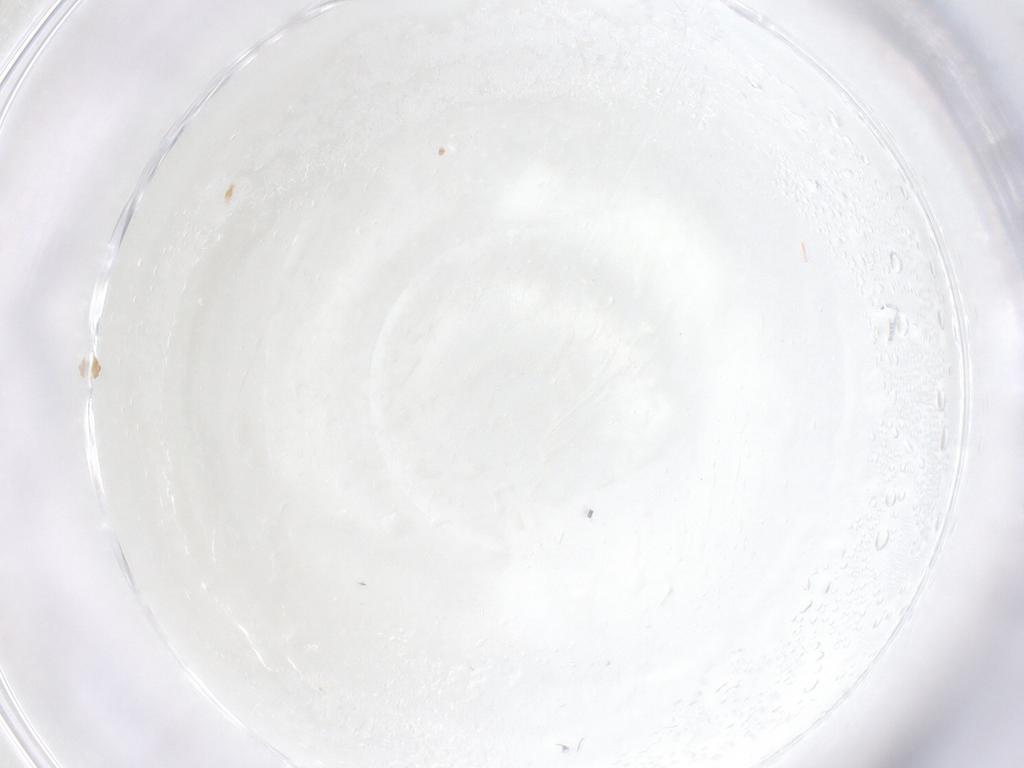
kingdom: Animalia
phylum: Arthropoda
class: Arachnida
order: Trombidiformes
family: Pygmephoridae
